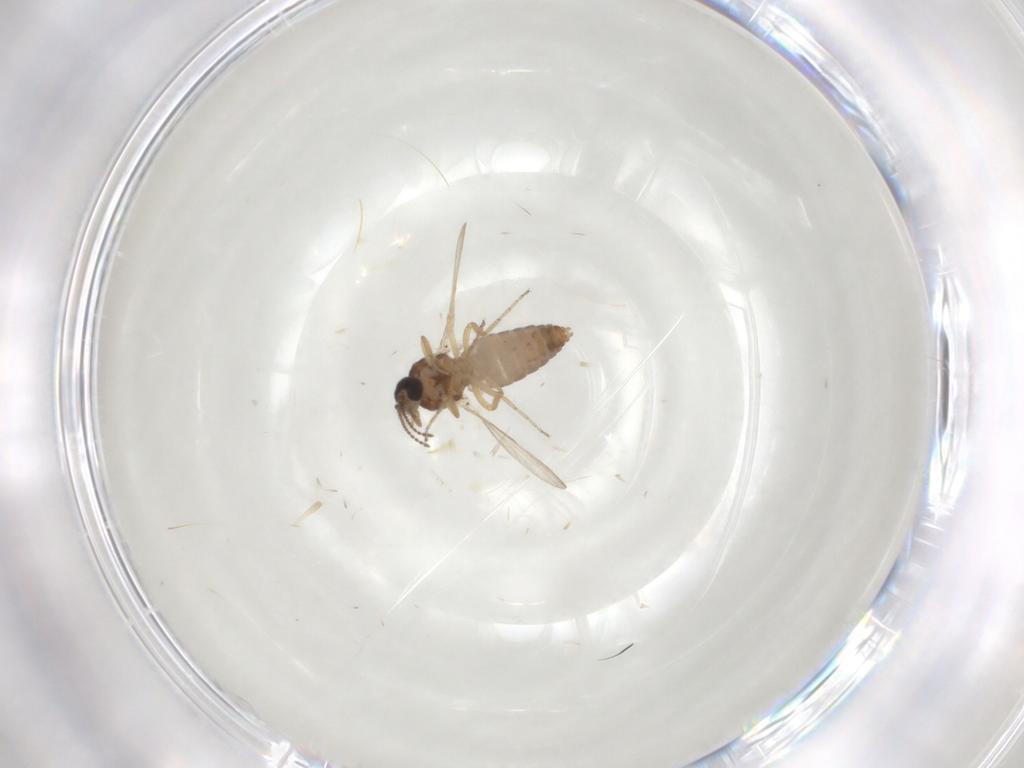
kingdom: Animalia
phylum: Arthropoda
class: Insecta
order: Diptera
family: Ceratopogonidae
